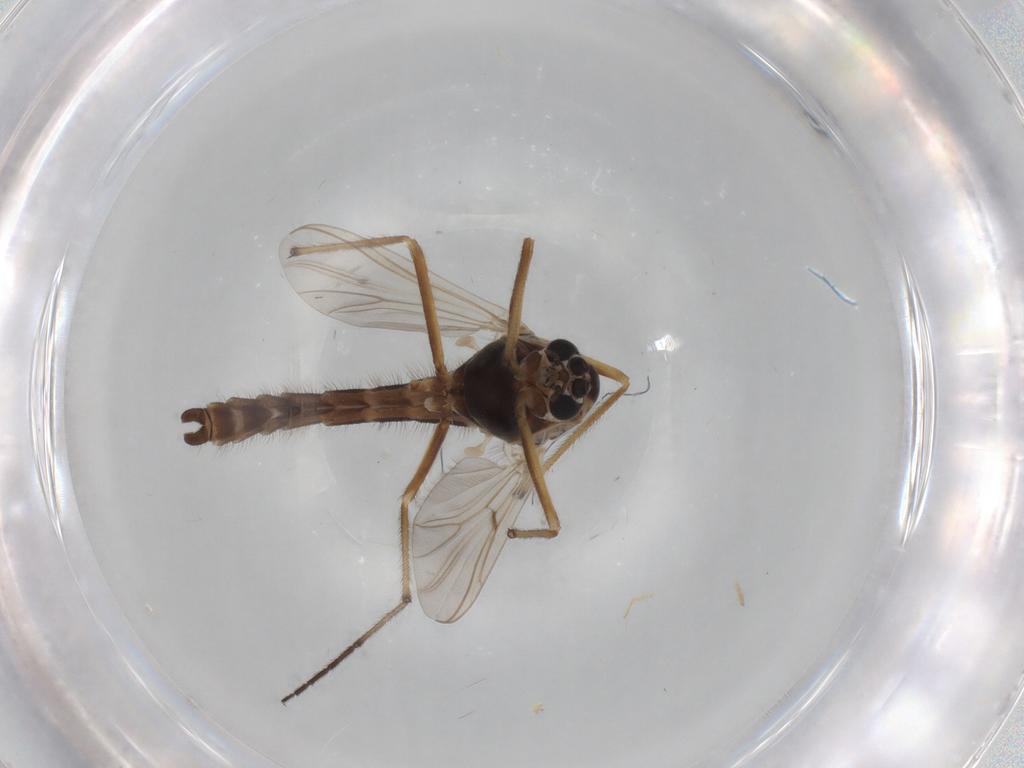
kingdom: Animalia
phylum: Arthropoda
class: Insecta
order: Diptera
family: Chironomidae
